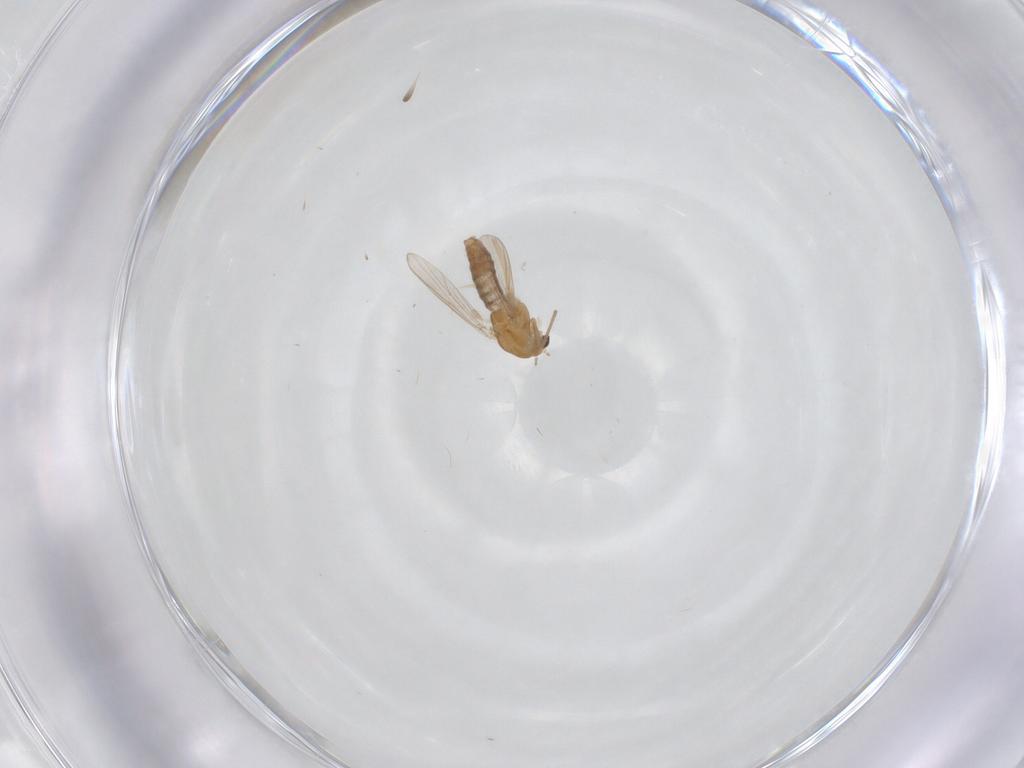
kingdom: Animalia
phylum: Arthropoda
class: Insecta
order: Diptera
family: Chironomidae
